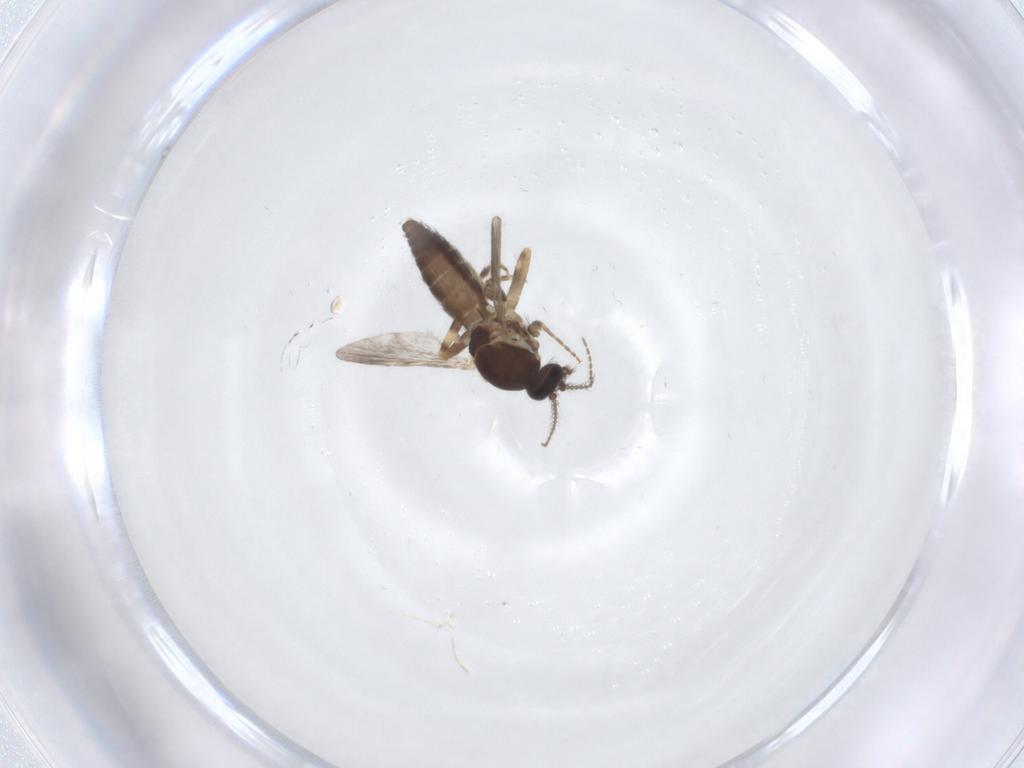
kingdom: Animalia
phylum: Arthropoda
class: Insecta
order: Diptera
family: Ceratopogonidae
